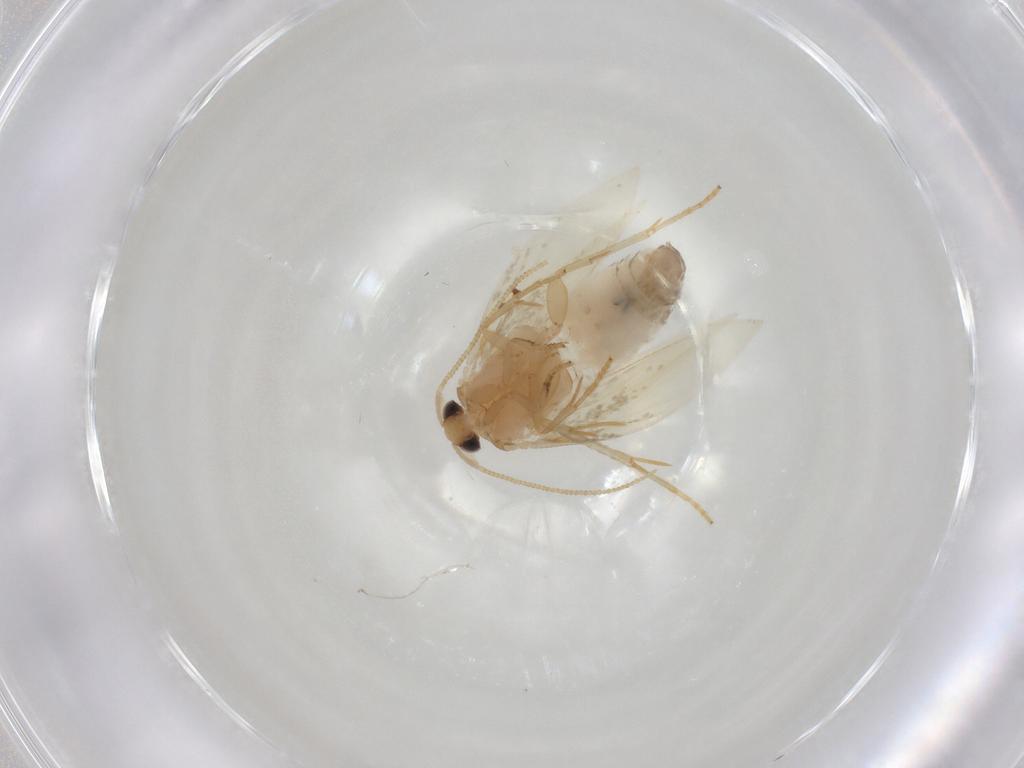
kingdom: Animalia
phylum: Arthropoda
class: Insecta
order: Lepidoptera
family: Nepticulidae
